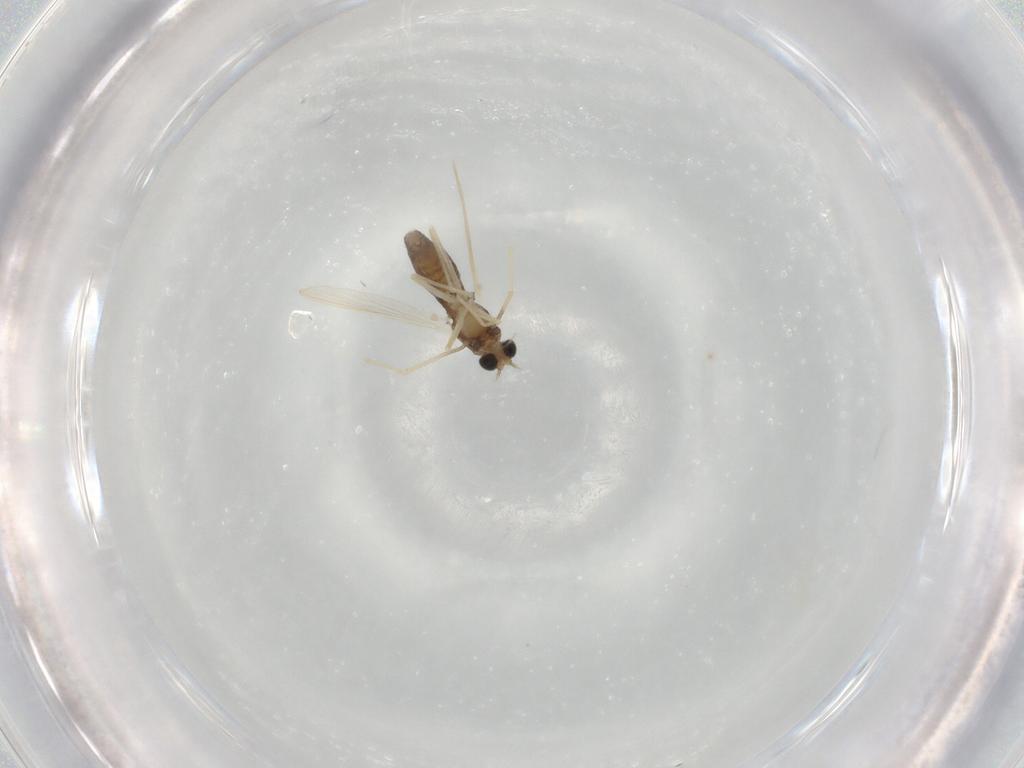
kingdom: Animalia
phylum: Arthropoda
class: Insecta
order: Diptera
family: Chironomidae
